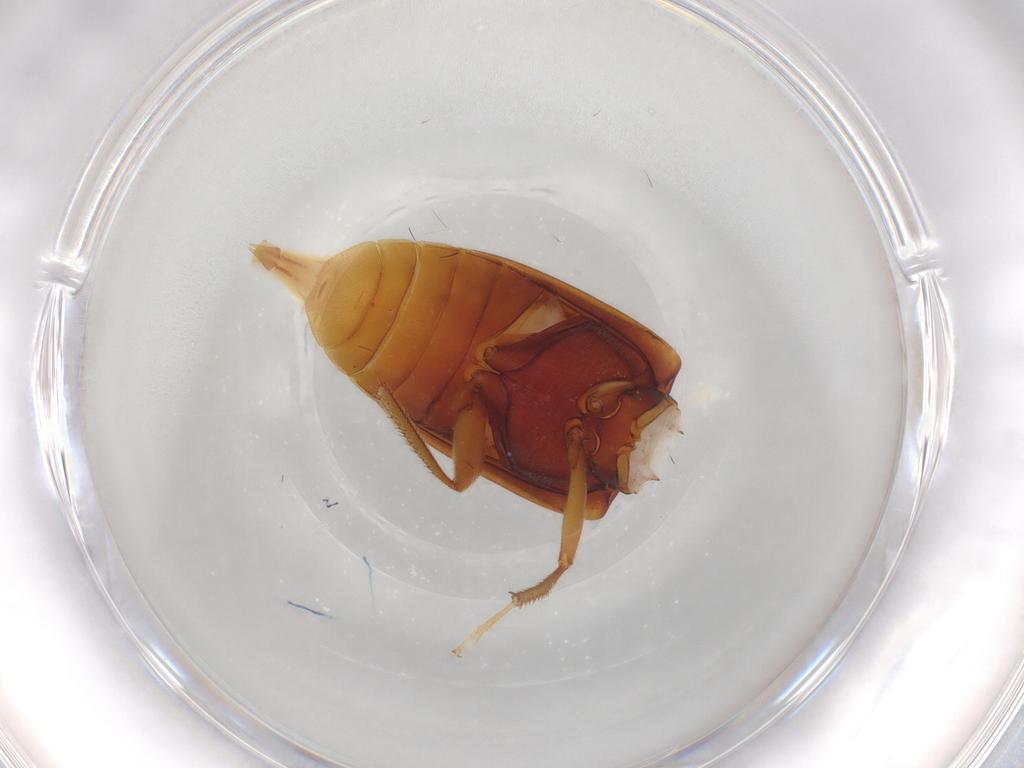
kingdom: Animalia
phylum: Arthropoda
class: Insecta
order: Coleoptera
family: Ptilodactylidae
